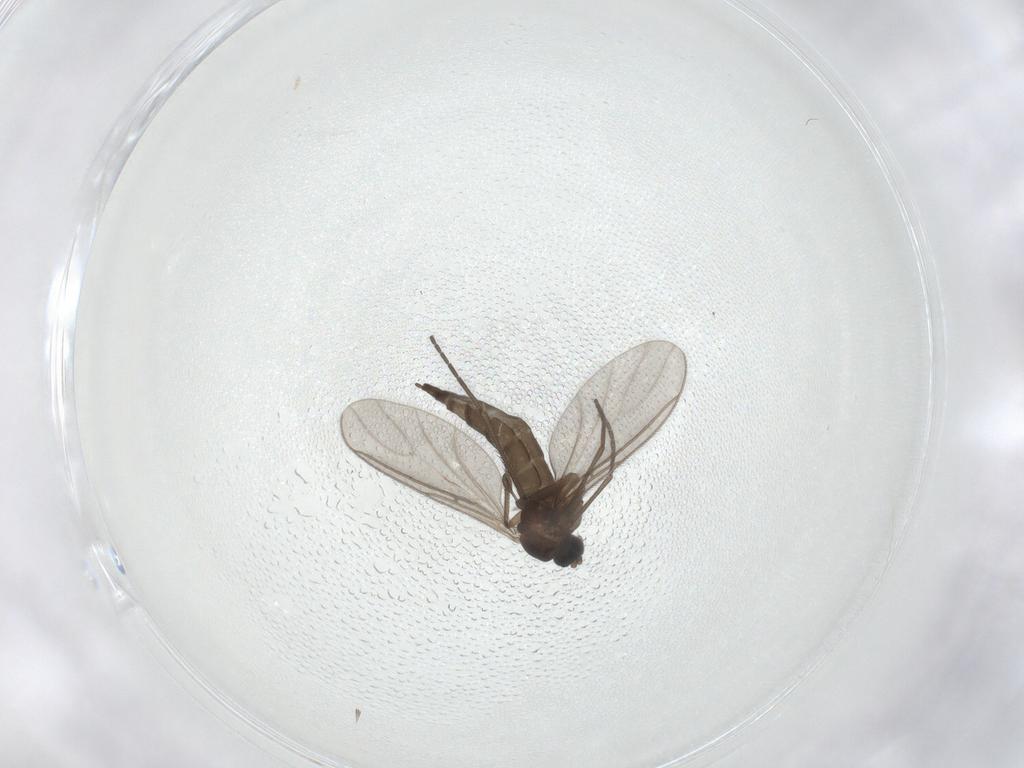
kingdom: Animalia
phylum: Arthropoda
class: Insecta
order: Diptera
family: Sciaridae
